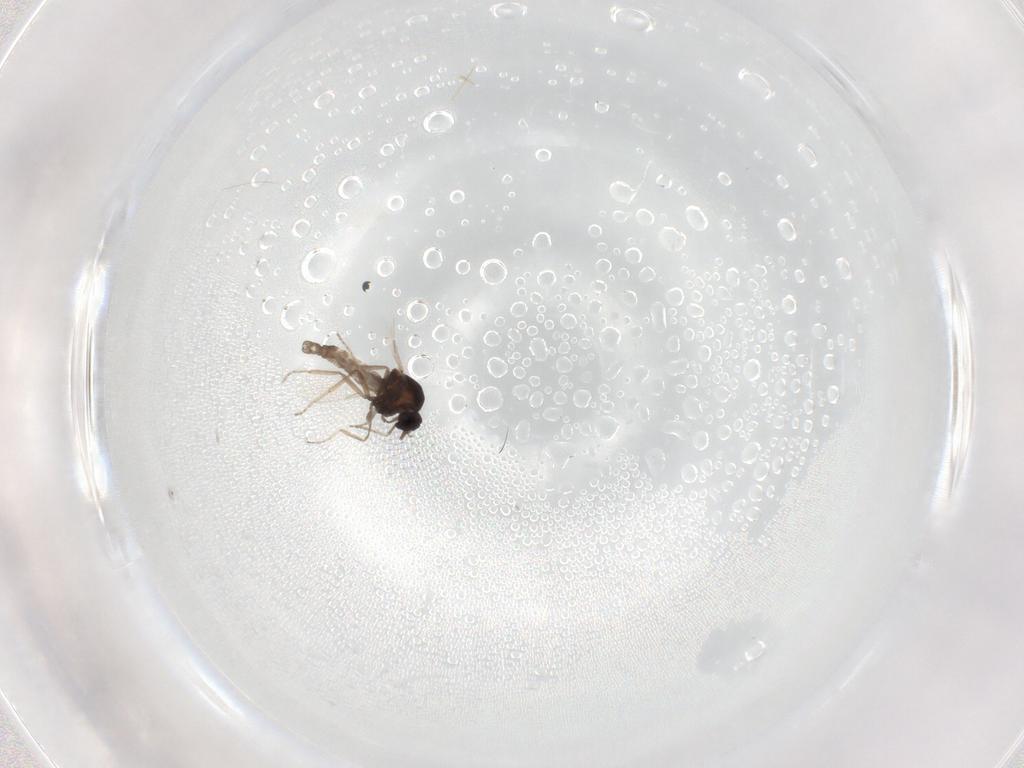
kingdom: Animalia
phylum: Arthropoda
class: Insecta
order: Diptera
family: Ceratopogonidae
